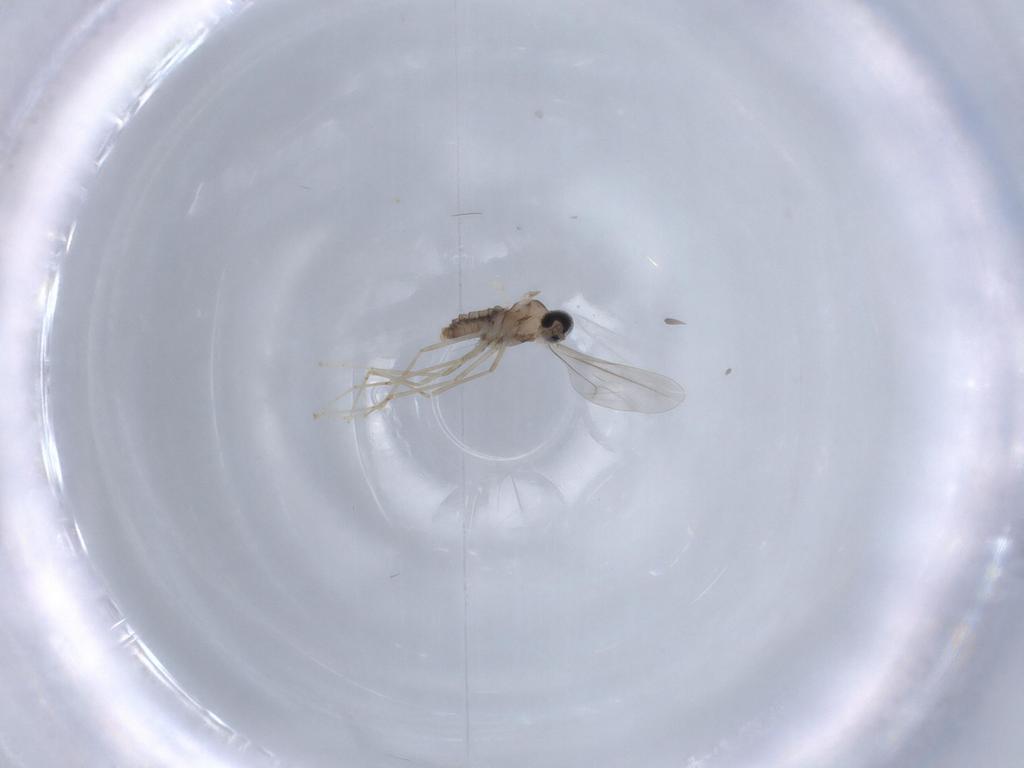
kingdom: Animalia
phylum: Arthropoda
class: Insecta
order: Diptera
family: Cecidomyiidae
